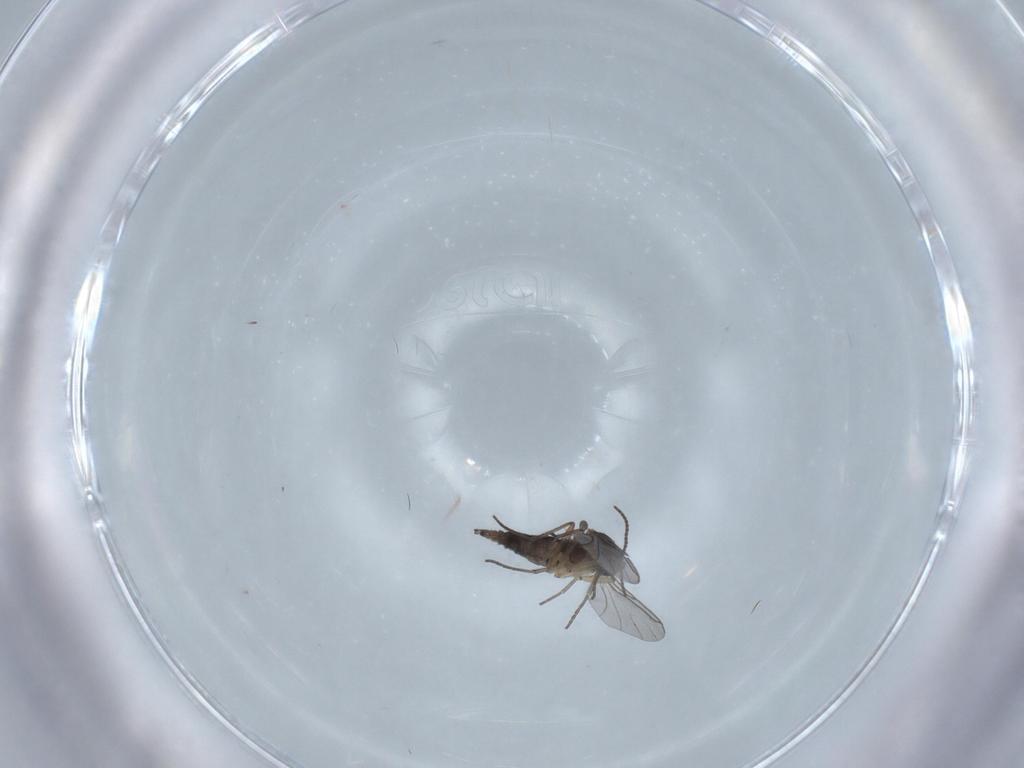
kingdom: Animalia
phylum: Arthropoda
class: Insecta
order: Diptera
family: Sciaridae
